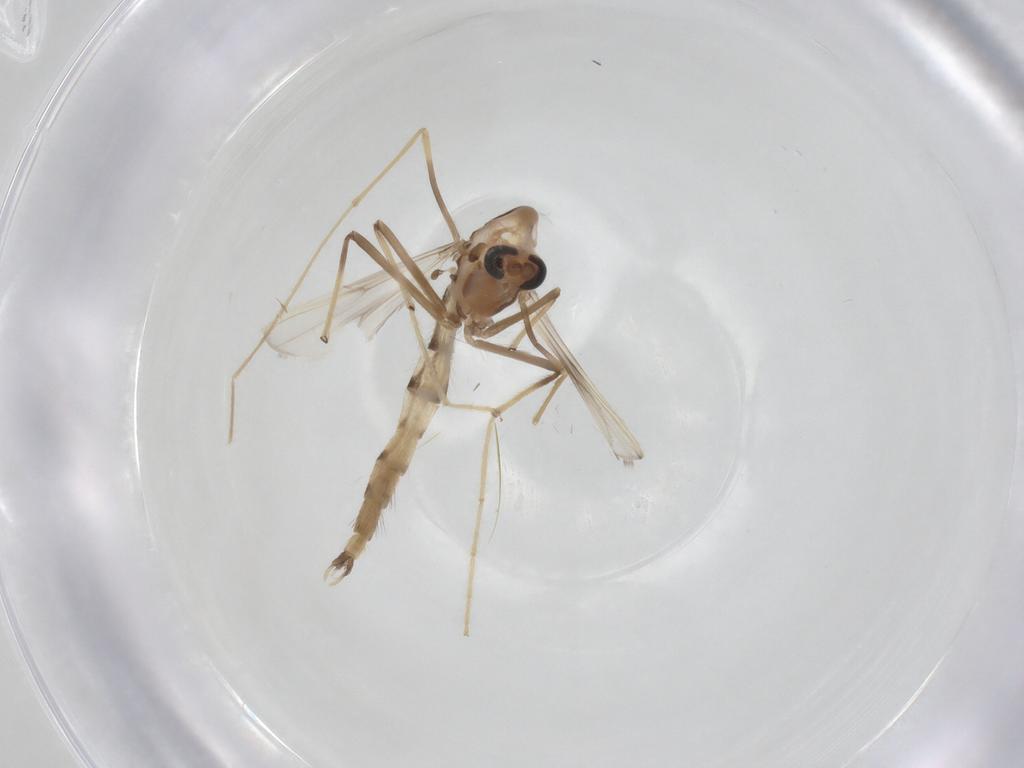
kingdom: Animalia
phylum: Arthropoda
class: Insecta
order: Diptera
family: Chironomidae
